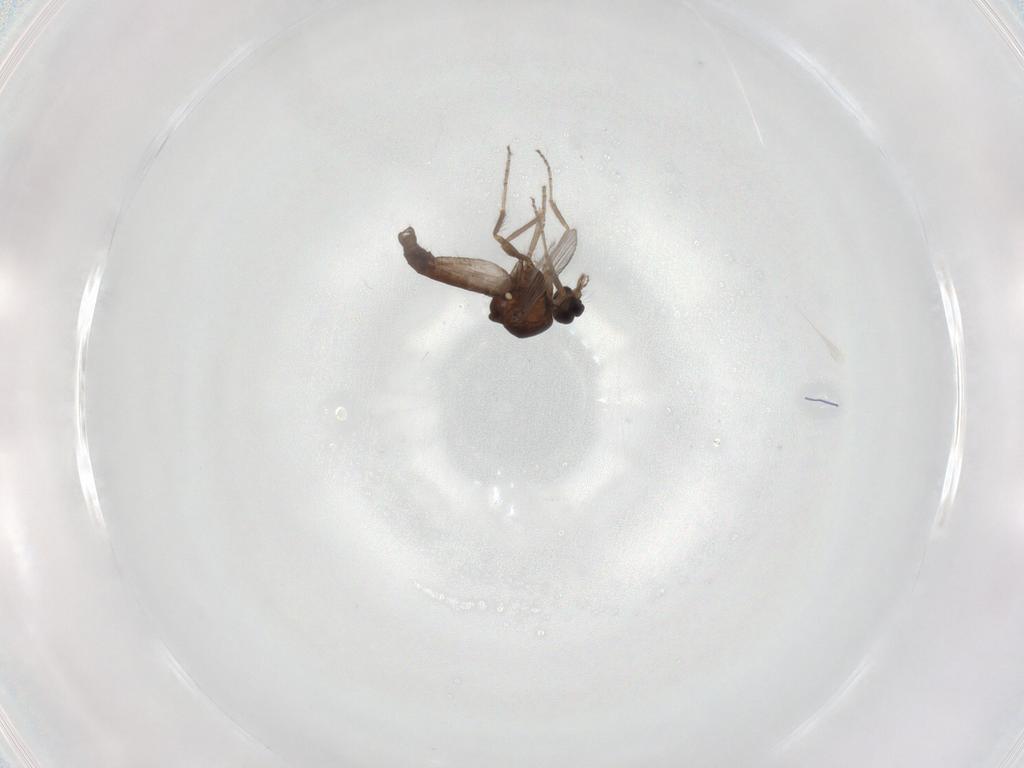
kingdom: Animalia
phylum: Arthropoda
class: Insecta
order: Diptera
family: Ceratopogonidae
